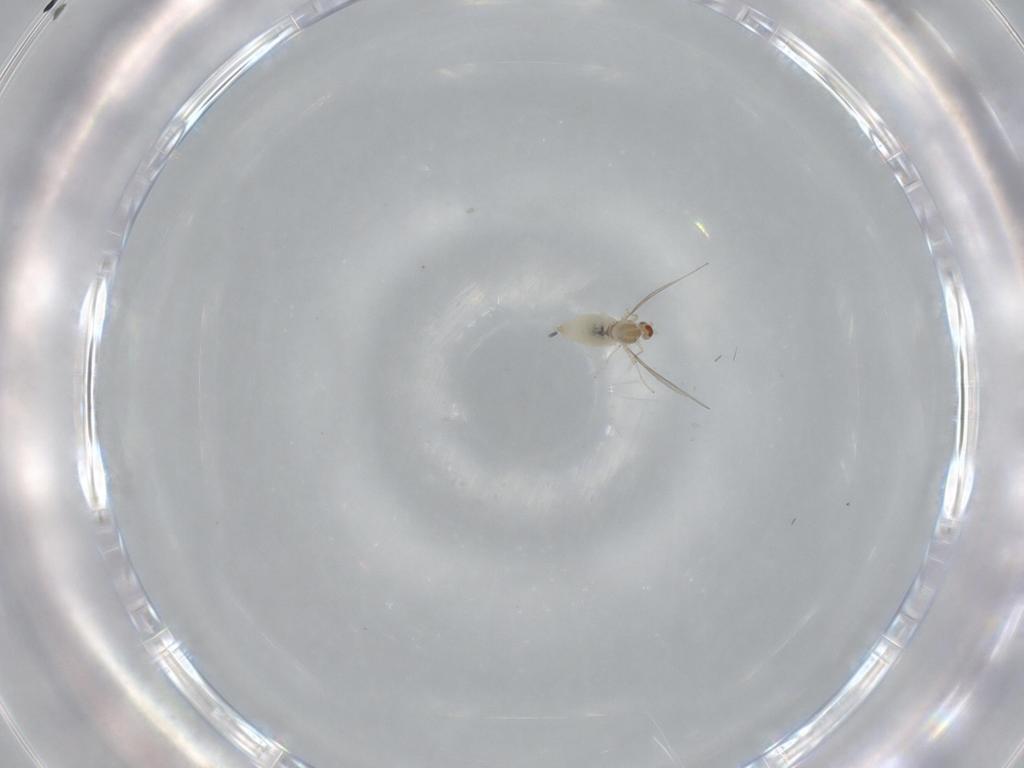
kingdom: Animalia
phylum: Arthropoda
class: Insecta
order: Diptera
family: Cecidomyiidae
